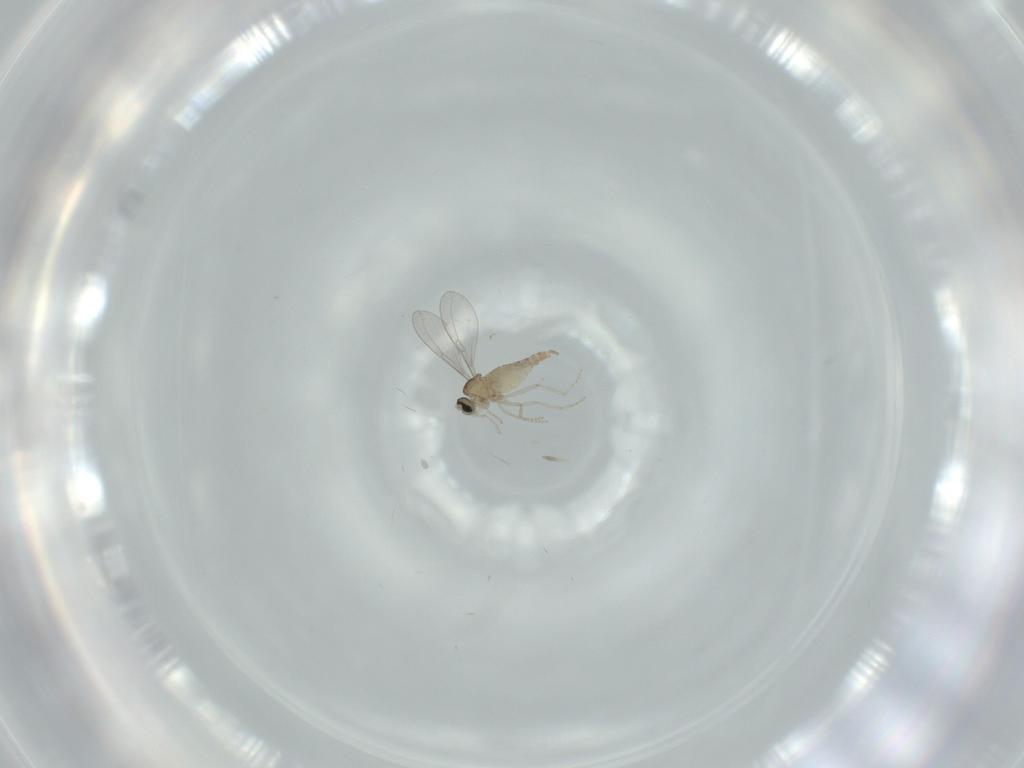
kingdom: Animalia
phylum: Arthropoda
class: Insecta
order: Diptera
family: Cecidomyiidae
